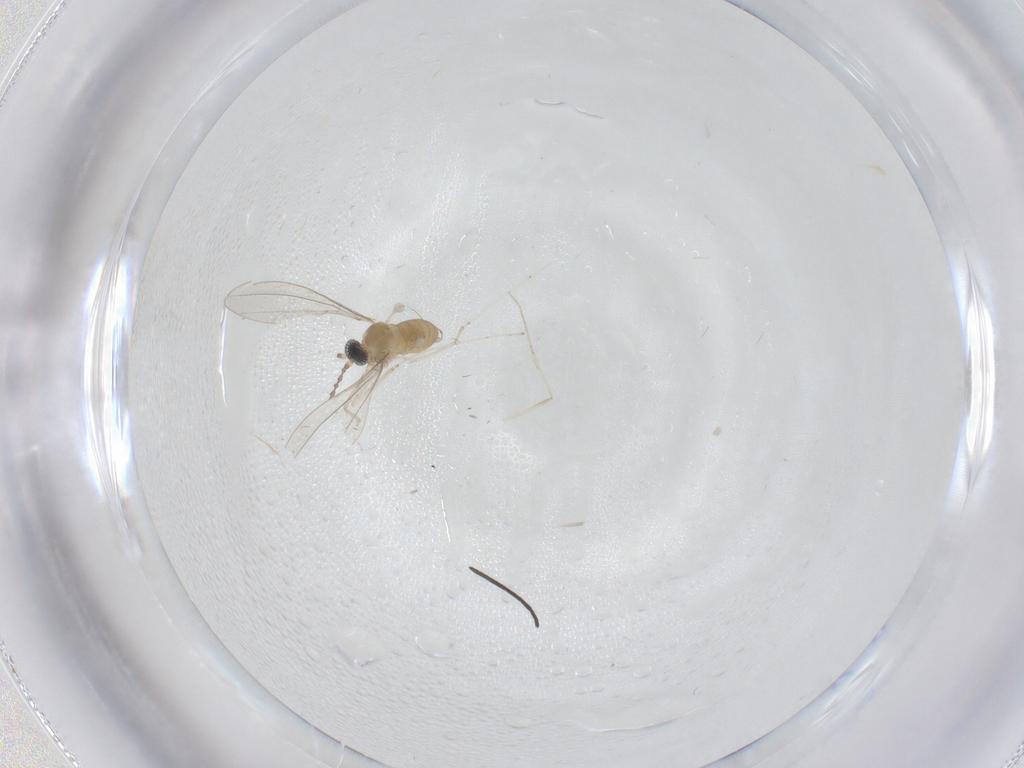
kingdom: Animalia
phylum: Arthropoda
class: Insecta
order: Diptera
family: Cecidomyiidae
